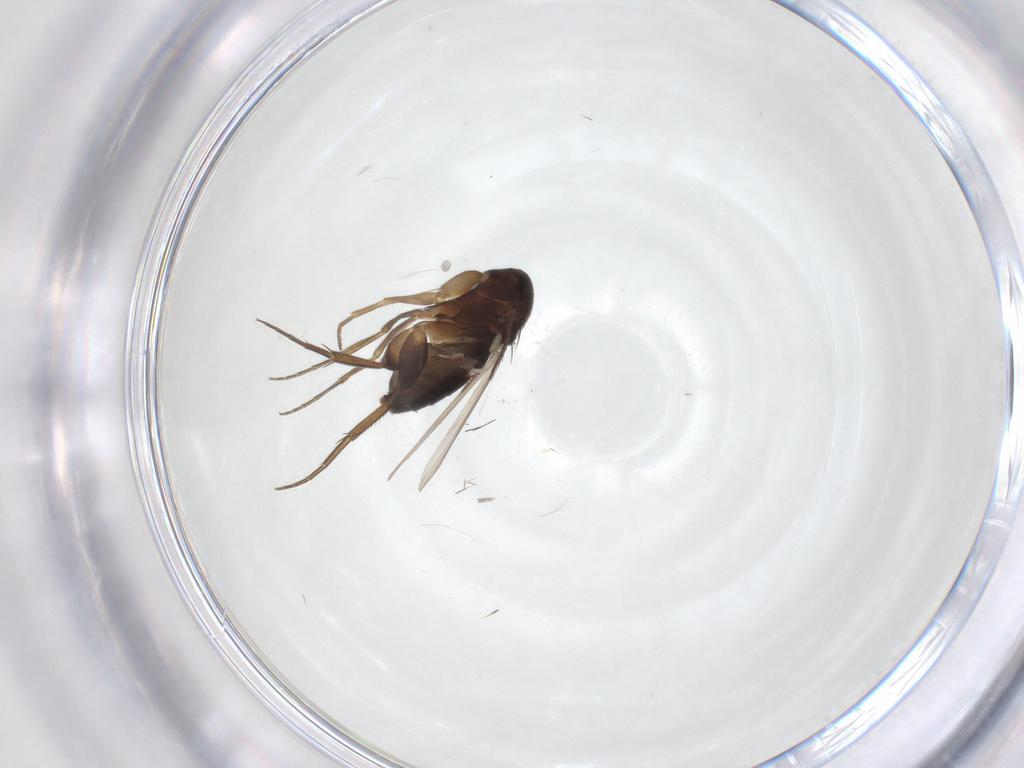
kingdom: Animalia
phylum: Arthropoda
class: Insecta
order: Diptera
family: Phoridae
